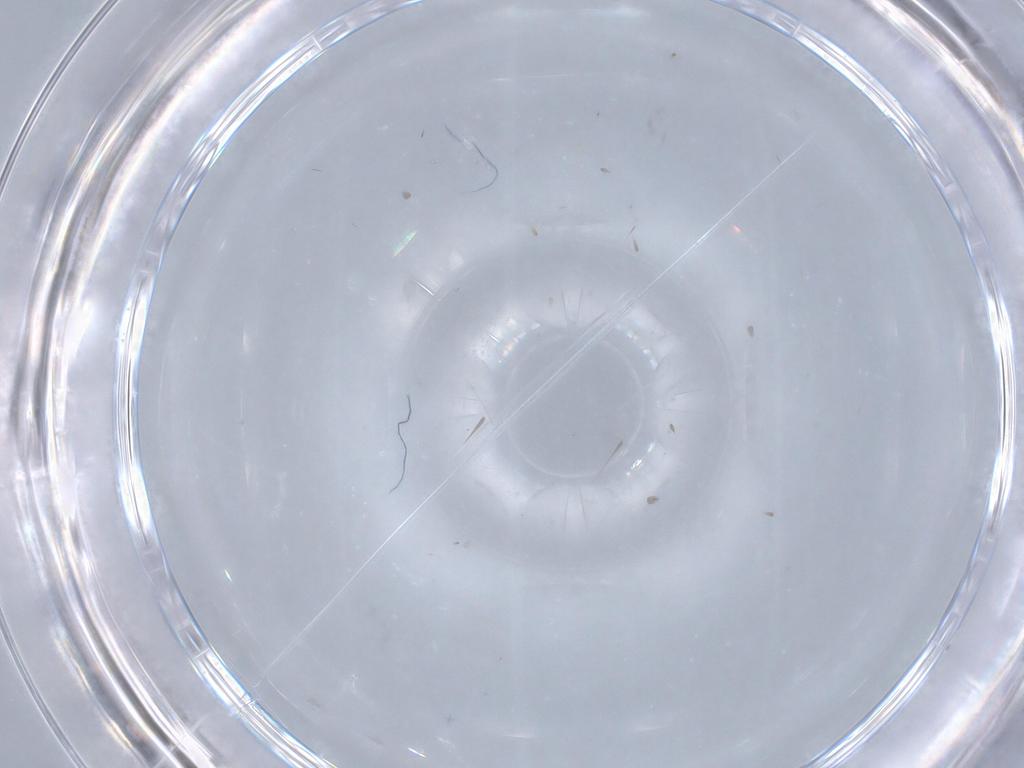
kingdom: Animalia
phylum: Arthropoda
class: Insecta
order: Diptera
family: Cecidomyiidae
